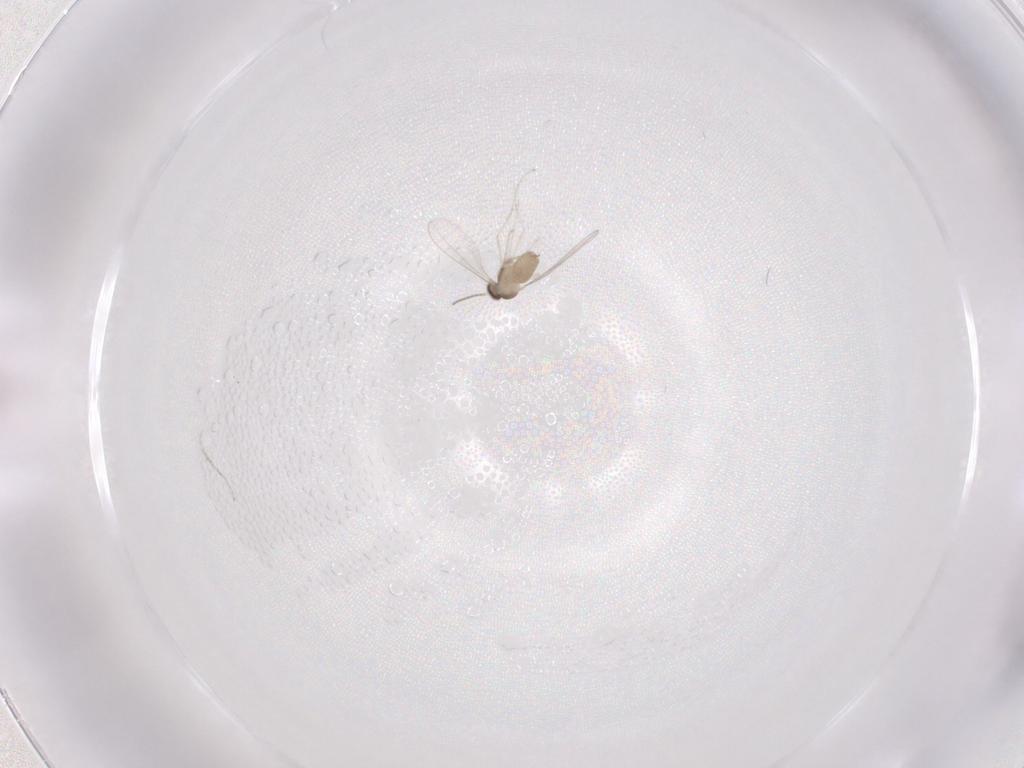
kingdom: Animalia
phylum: Arthropoda
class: Insecta
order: Diptera
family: Cecidomyiidae
